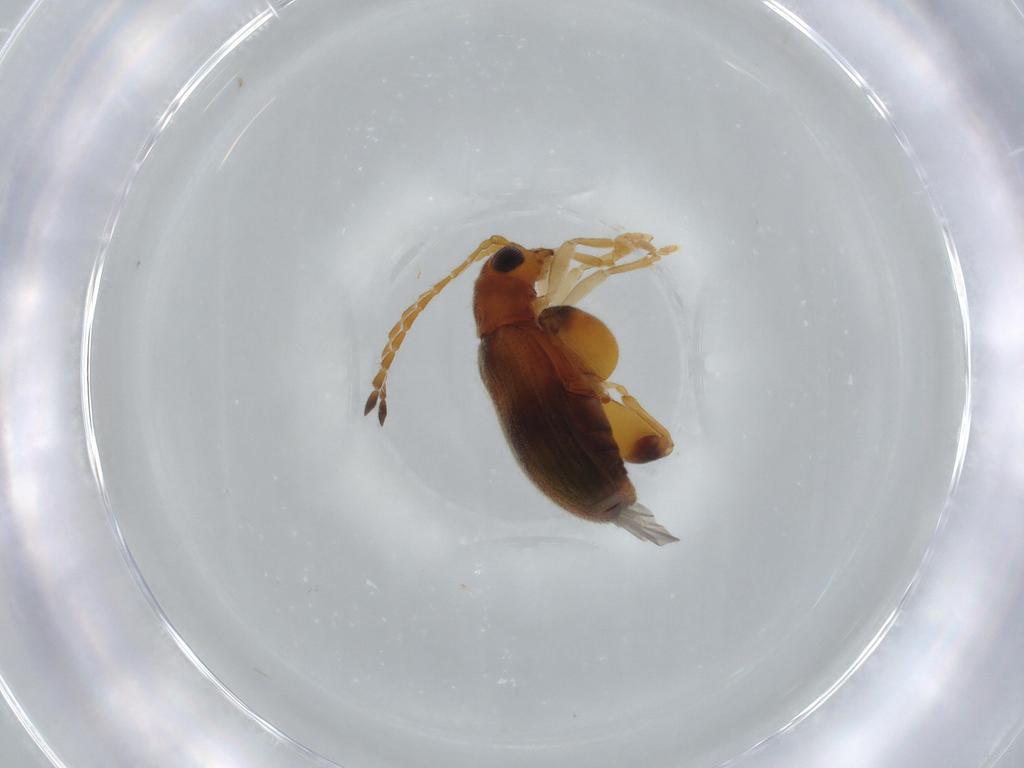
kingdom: Animalia
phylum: Arthropoda
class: Insecta
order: Coleoptera
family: Chrysomelidae
